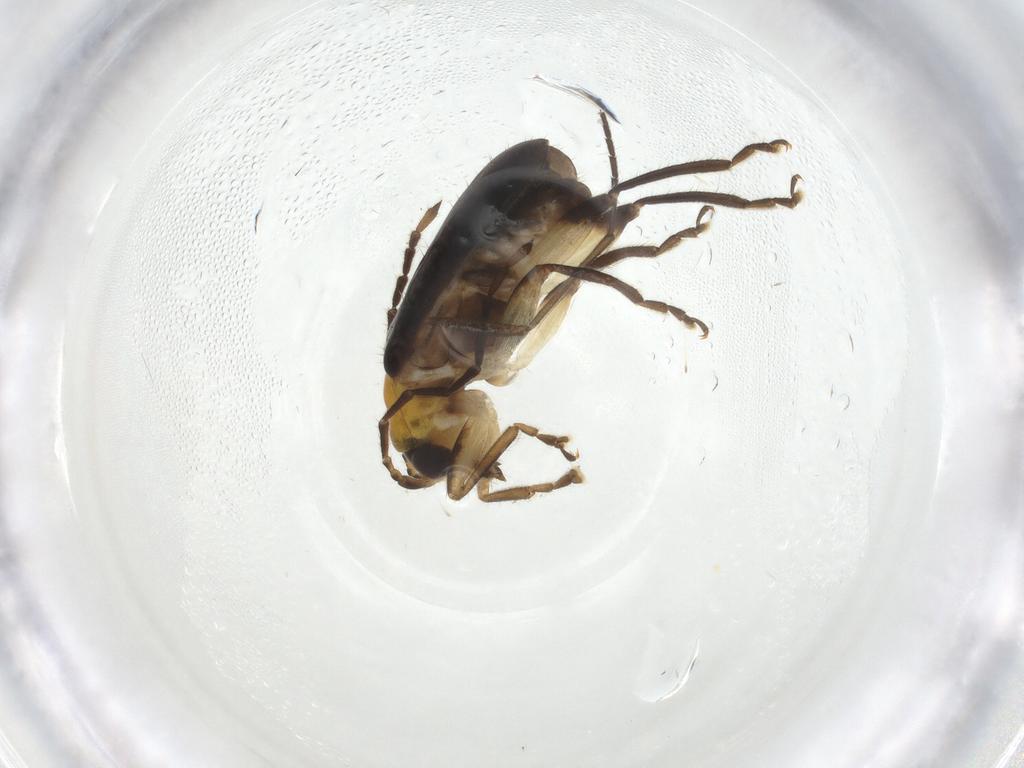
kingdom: Animalia
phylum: Arthropoda
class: Insecta
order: Coleoptera
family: Chrysomelidae
